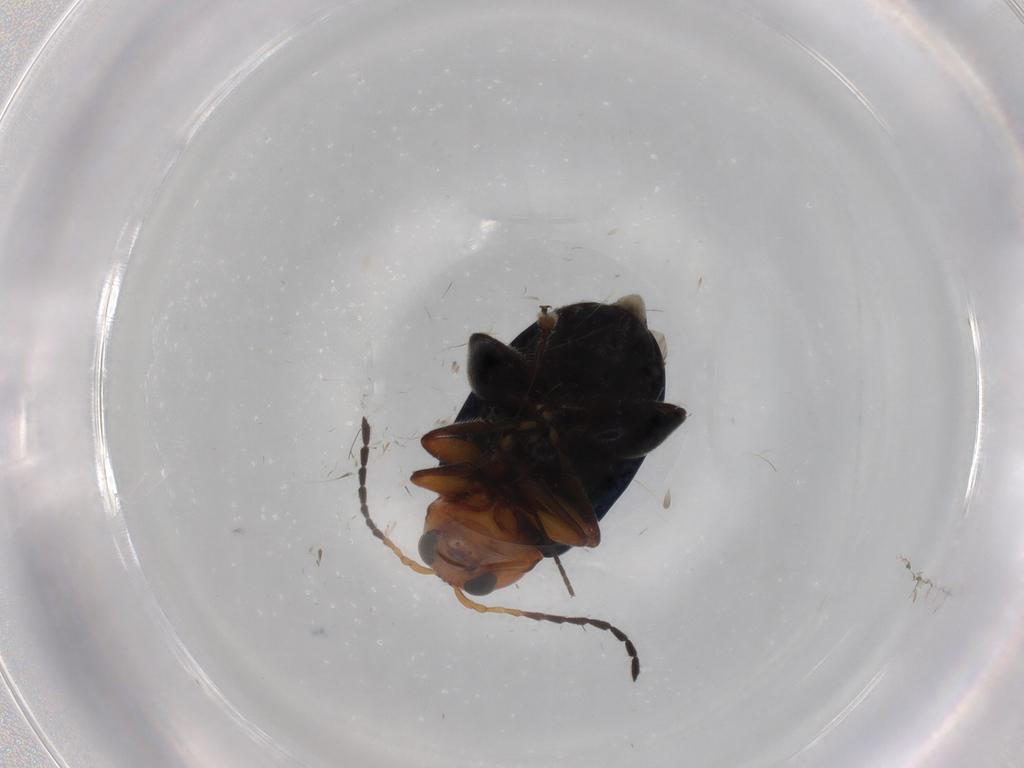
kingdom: Animalia
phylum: Arthropoda
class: Insecta
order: Coleoptera
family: Chrysomelidae
